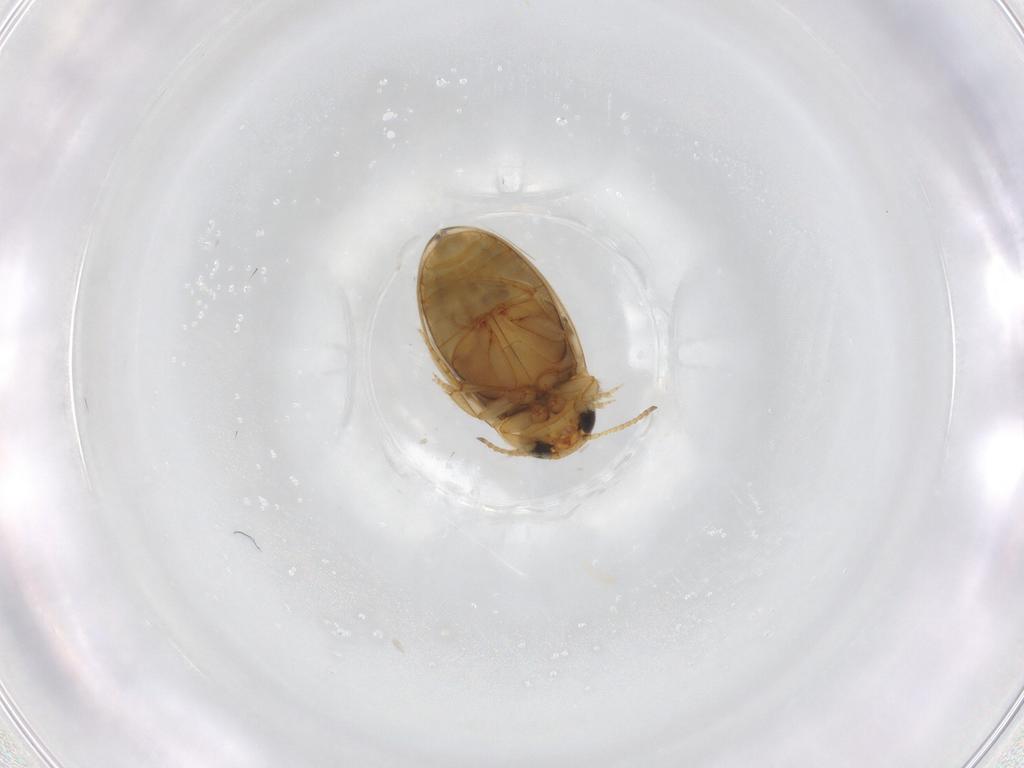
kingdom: Animalia
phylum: Arthropoda
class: Insecta
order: Coleoptera
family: Dytiscidae
